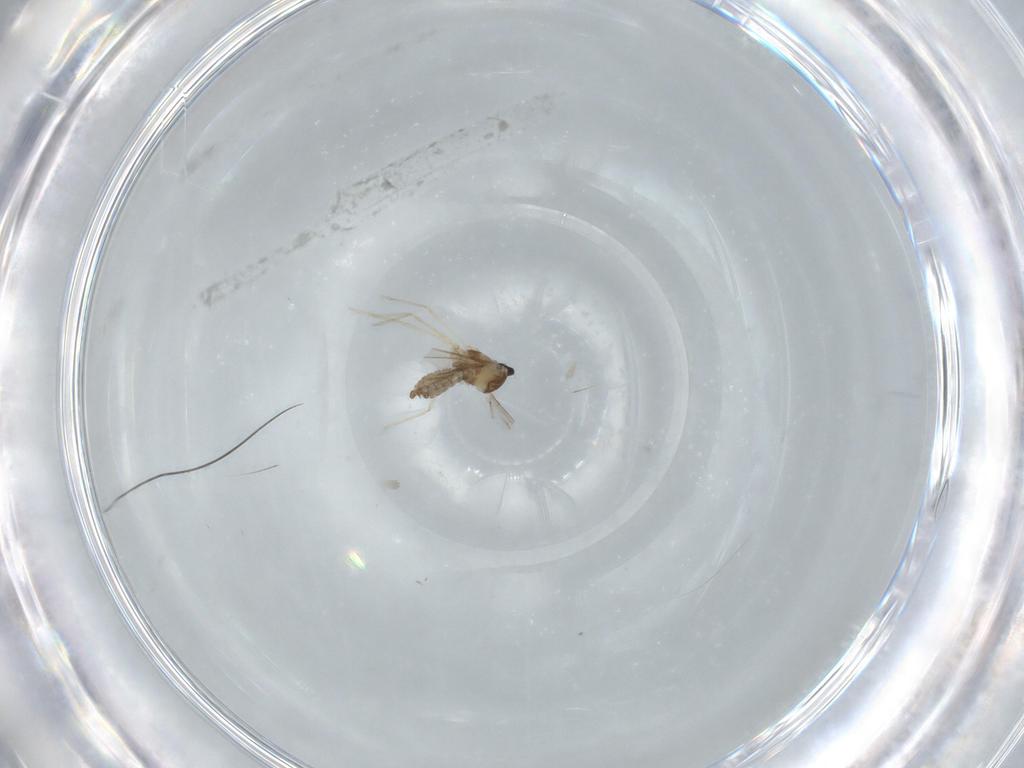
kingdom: Animalia
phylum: Arthropoda
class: Insecta
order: Diptera
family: Cecidomyiidae
